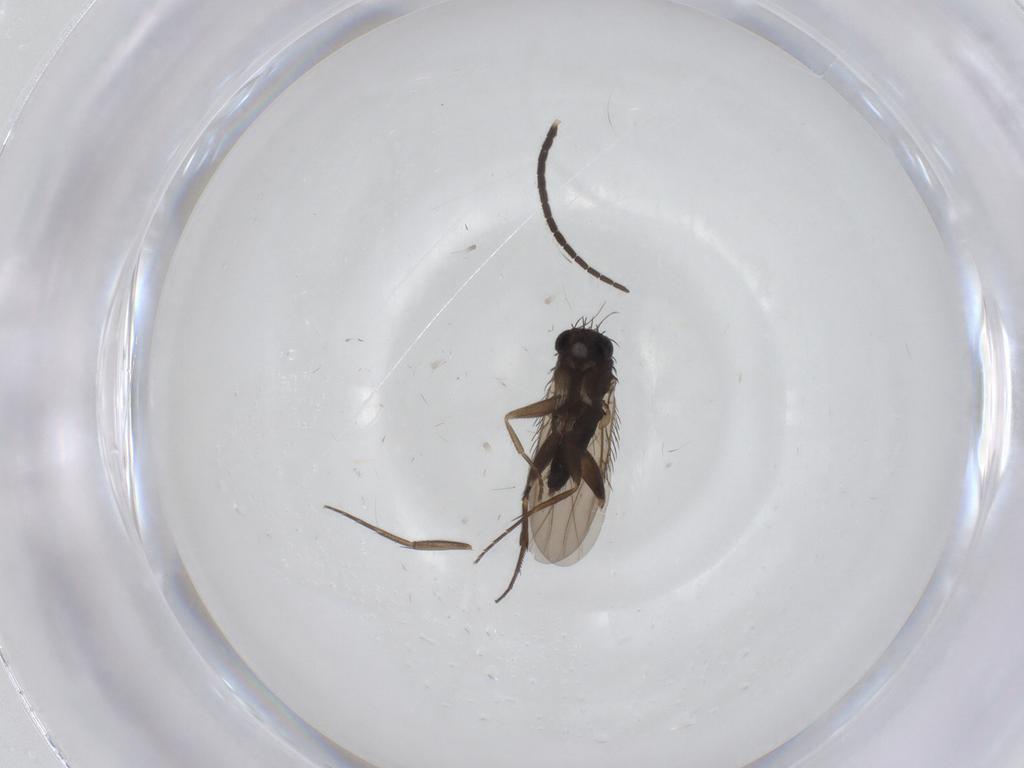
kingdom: Animalia
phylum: Arthropoda
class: Insecta
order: Diptera
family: Phoridae
